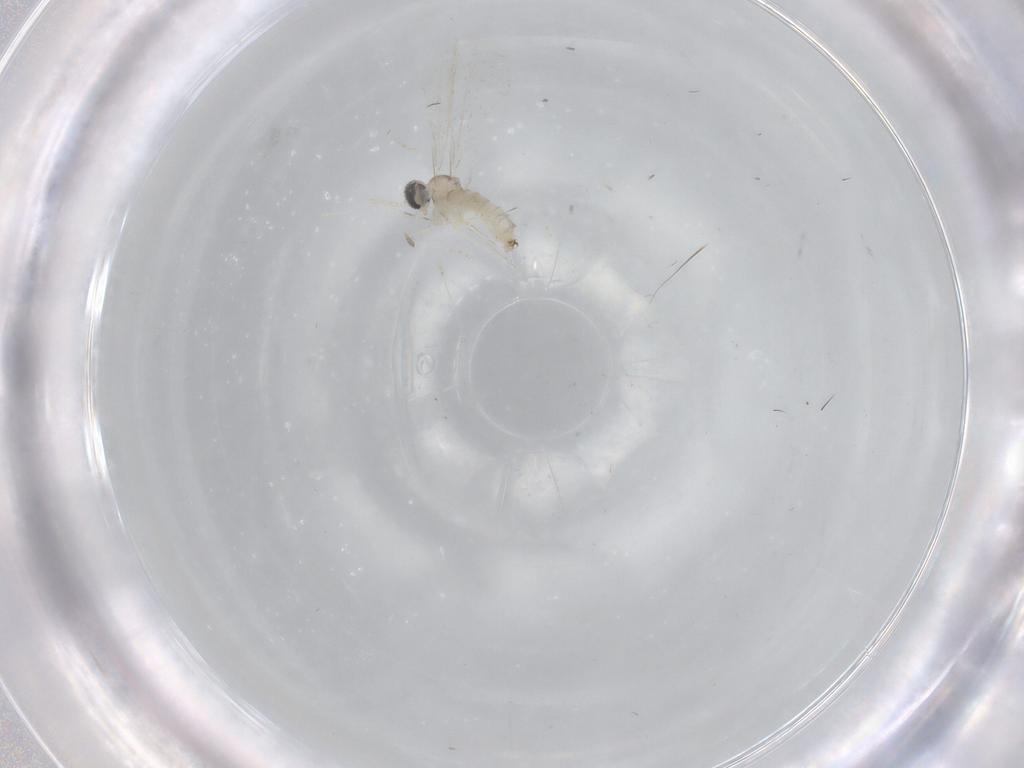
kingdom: Animalia
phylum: Arthropoda
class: Insecta
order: Diptera
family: Cecidomyiidae
